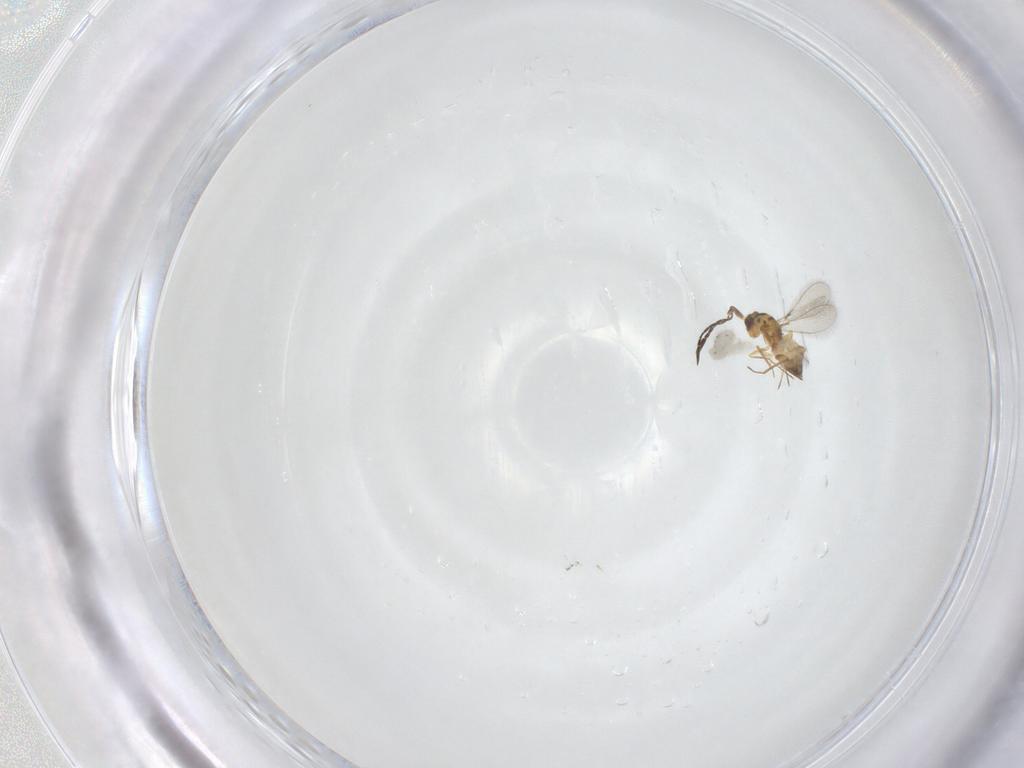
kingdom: Animalia
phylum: Arthropoda
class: Insecta
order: Hymenoptera
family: Mymaridae
